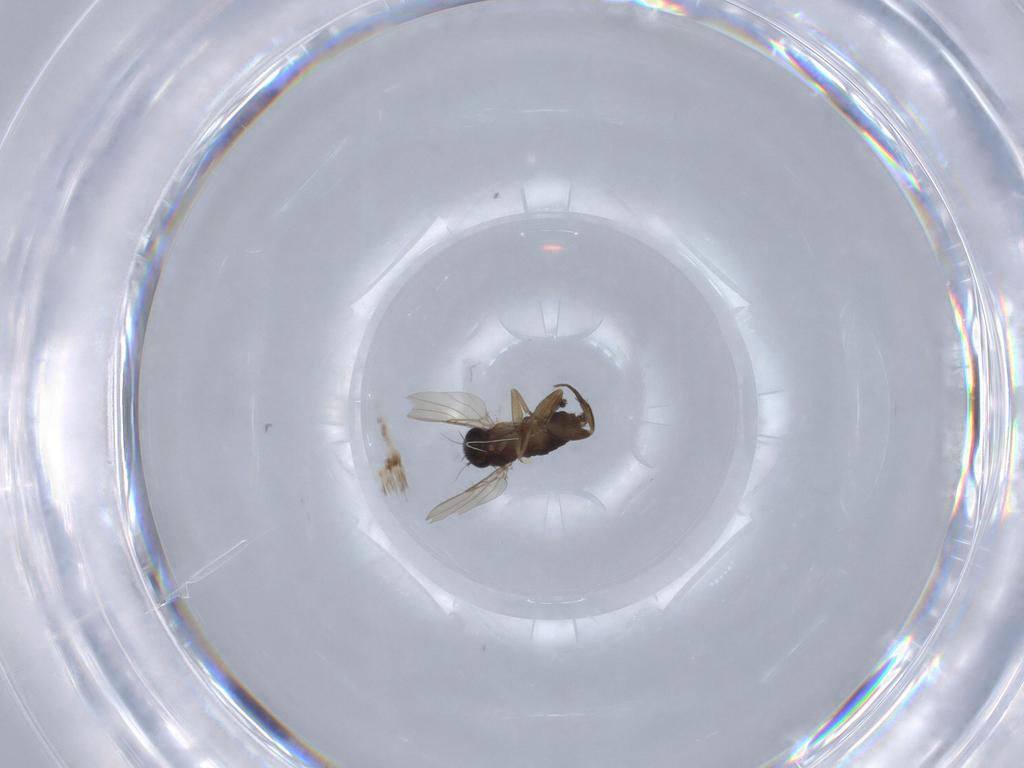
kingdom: Animalia
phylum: Arthropoda
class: Insecta
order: Diptera
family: Phoridae
